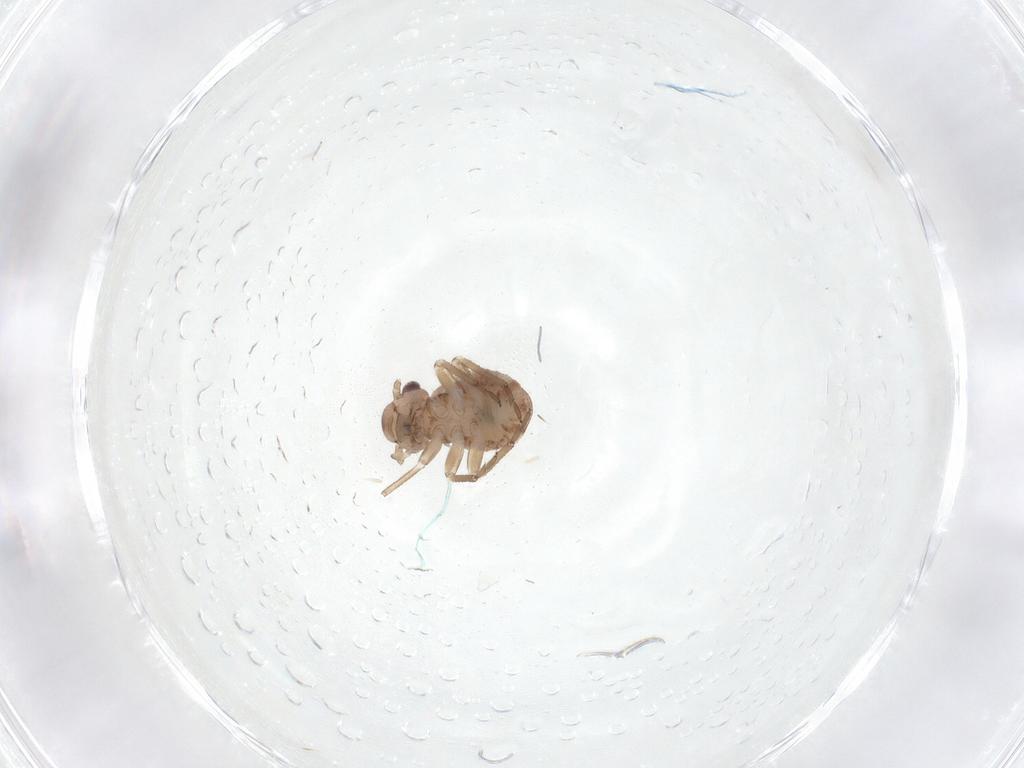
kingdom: Animalia
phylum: Arthropoda
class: Insecta
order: Psocodea
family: Psocidae
